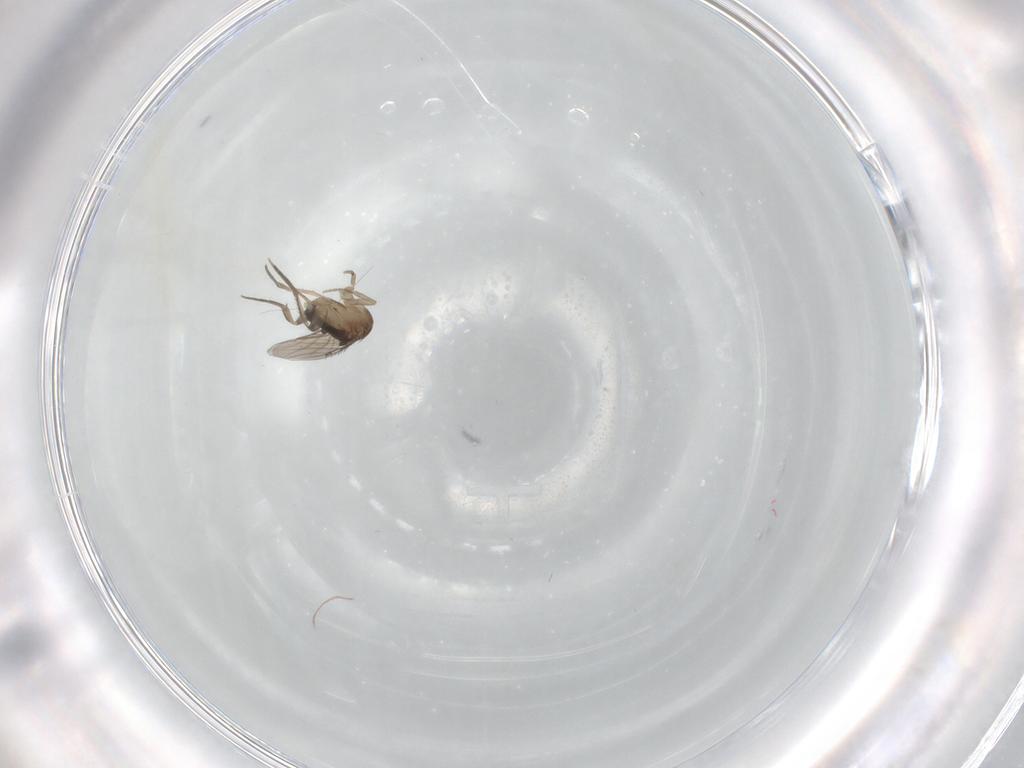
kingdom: Animalia
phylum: Arthropoda
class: Insecta
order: Diptera
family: Phoridae
